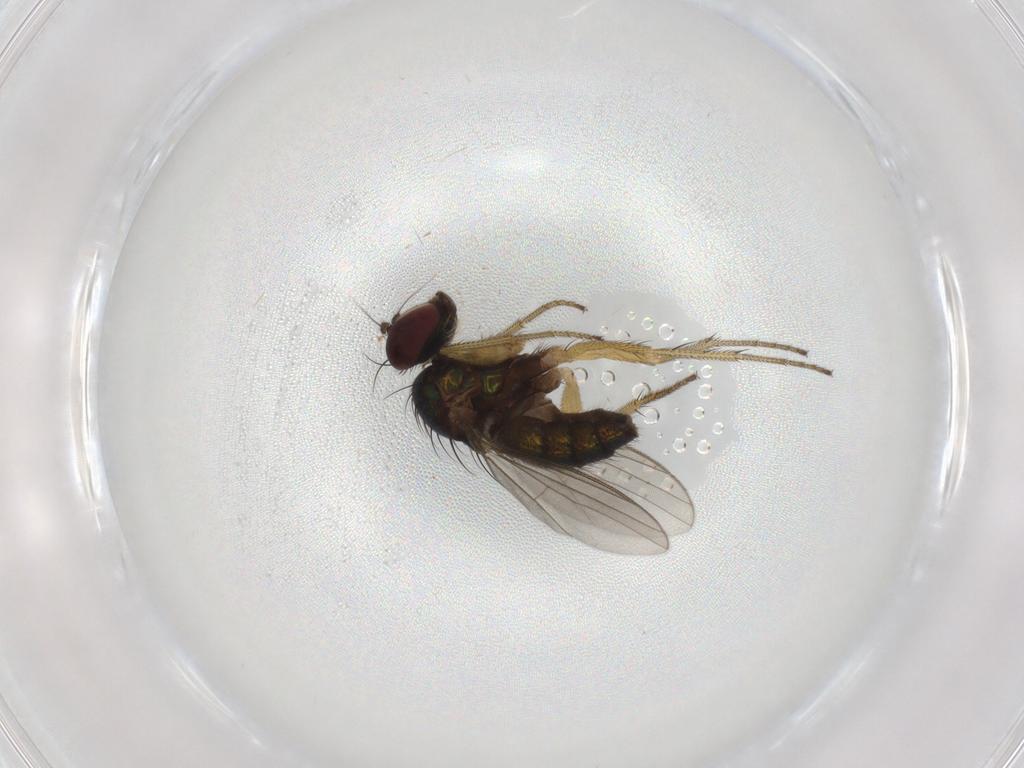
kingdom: Animalia
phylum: Arthropoda
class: Insecta
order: Diptera
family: Dolichopodidae
